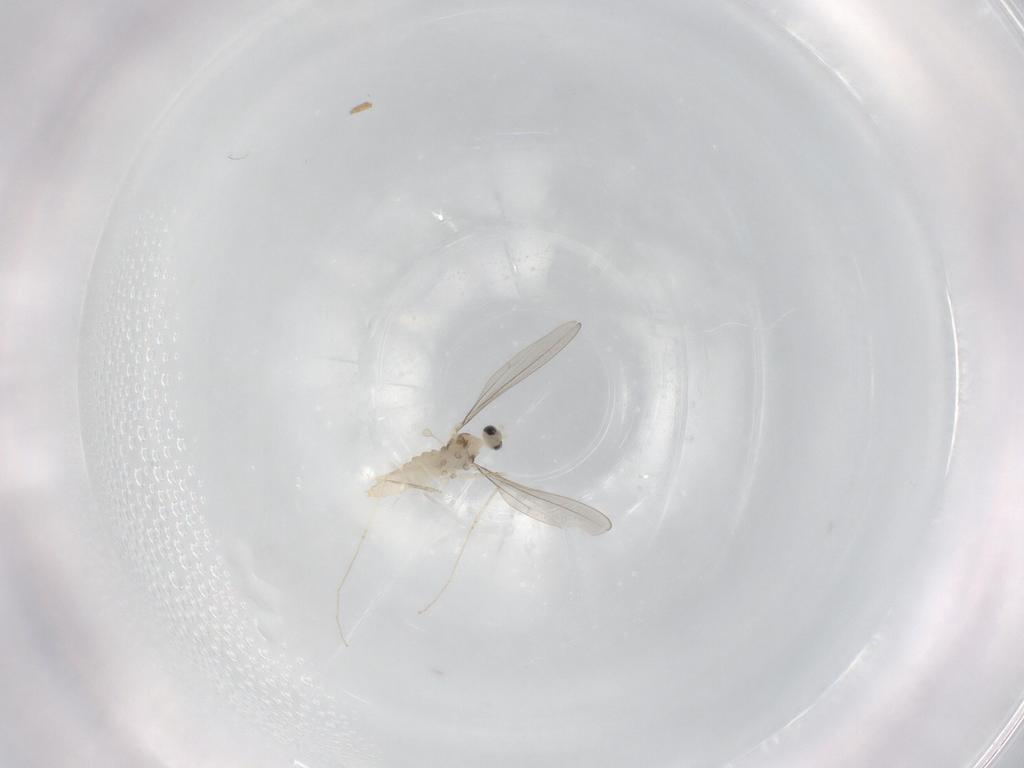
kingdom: Animalia
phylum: Arthropoda
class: Insecta
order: Diptera
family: Cecidomyiidae
